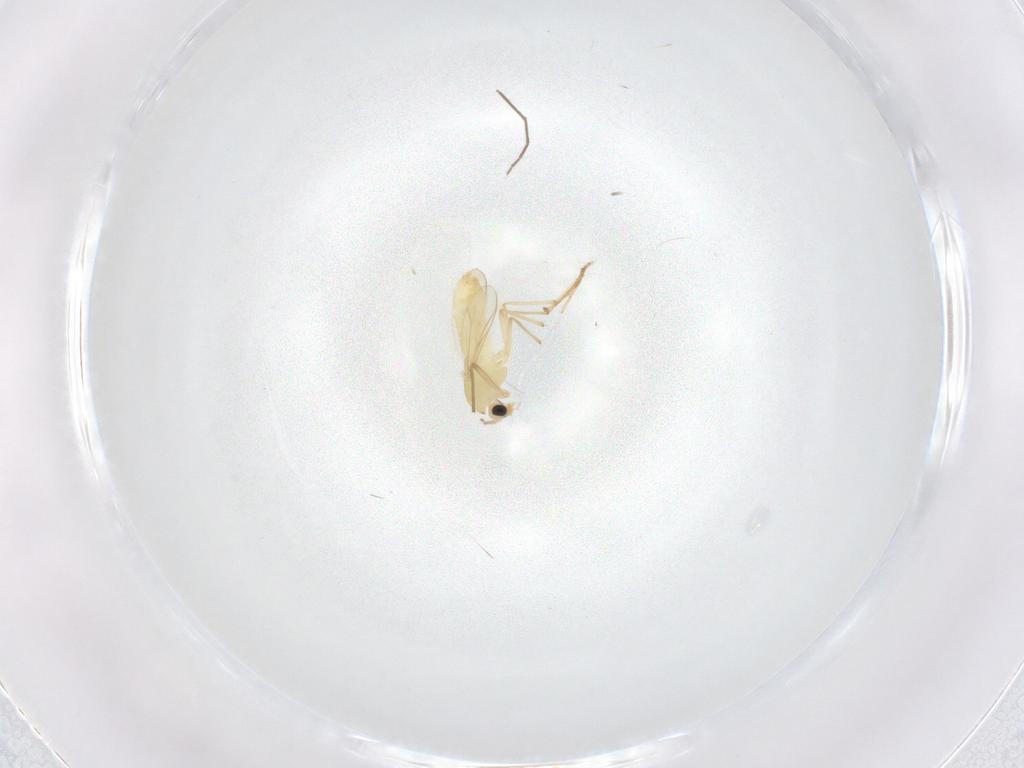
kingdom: Animalia
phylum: Arthropoda
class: Insecta
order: Diptera
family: Chironomidae
